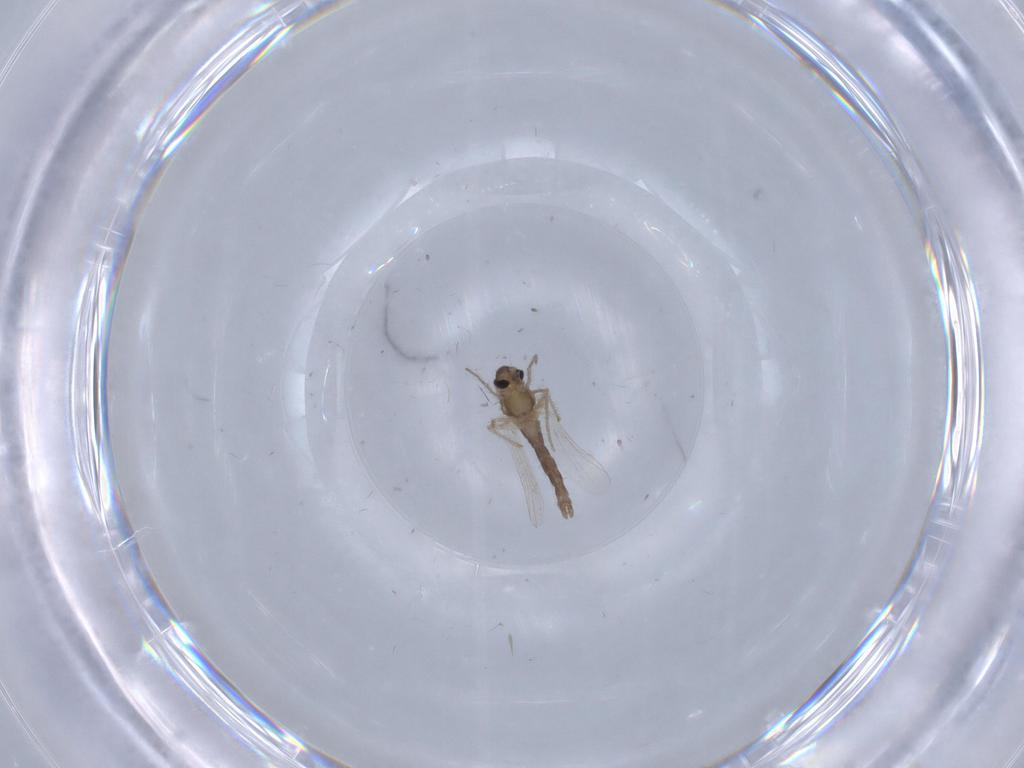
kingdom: Animalia
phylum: Arthropoda
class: Insecta
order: Diptera
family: Chironomidae
